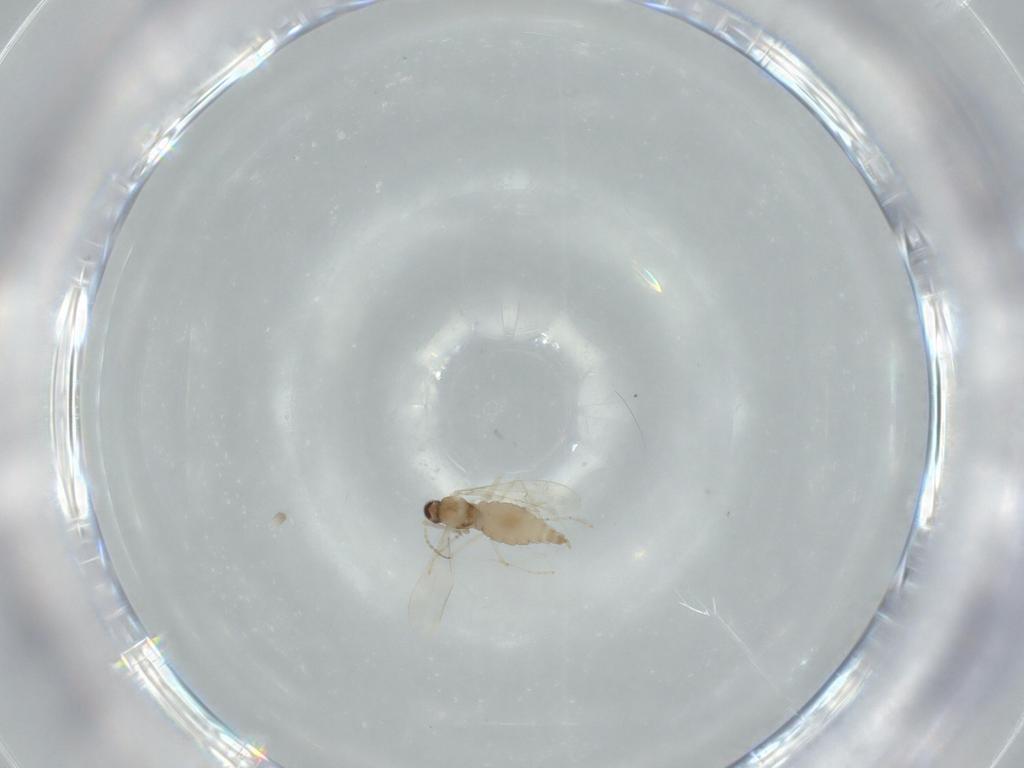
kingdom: Animalia
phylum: Arthropoda
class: Insecta
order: Diptera
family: Cecidomyiidae
